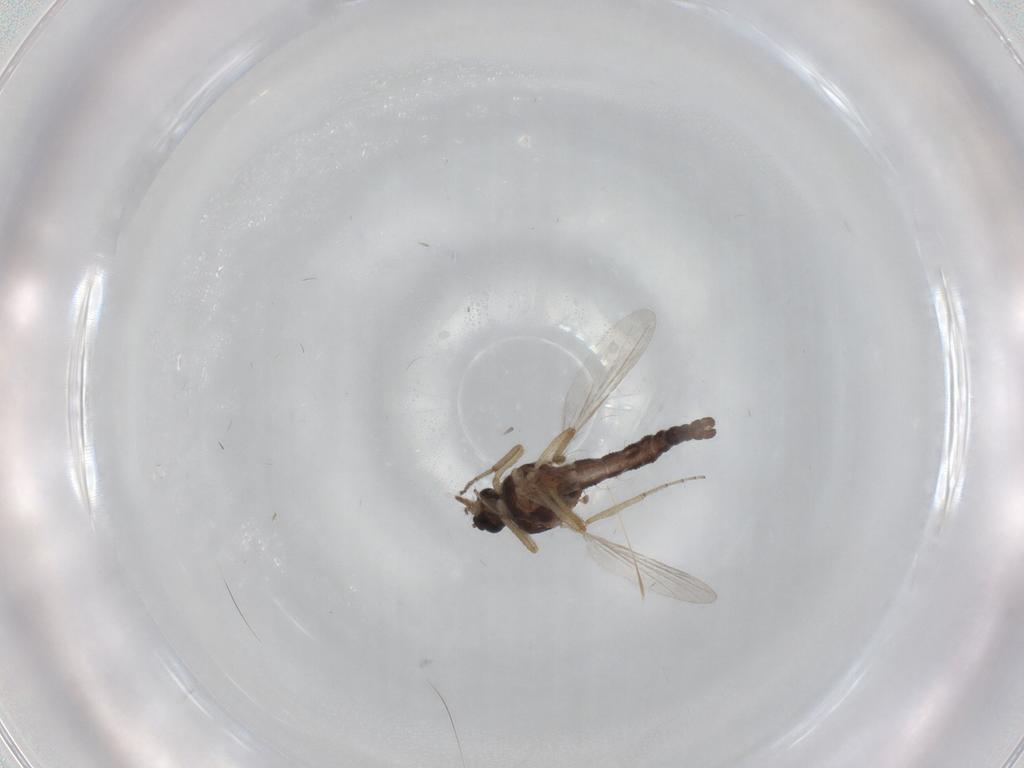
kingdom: Animalia
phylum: Arthropoda
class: Insecta
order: Diptera
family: Ceratopogonidae
